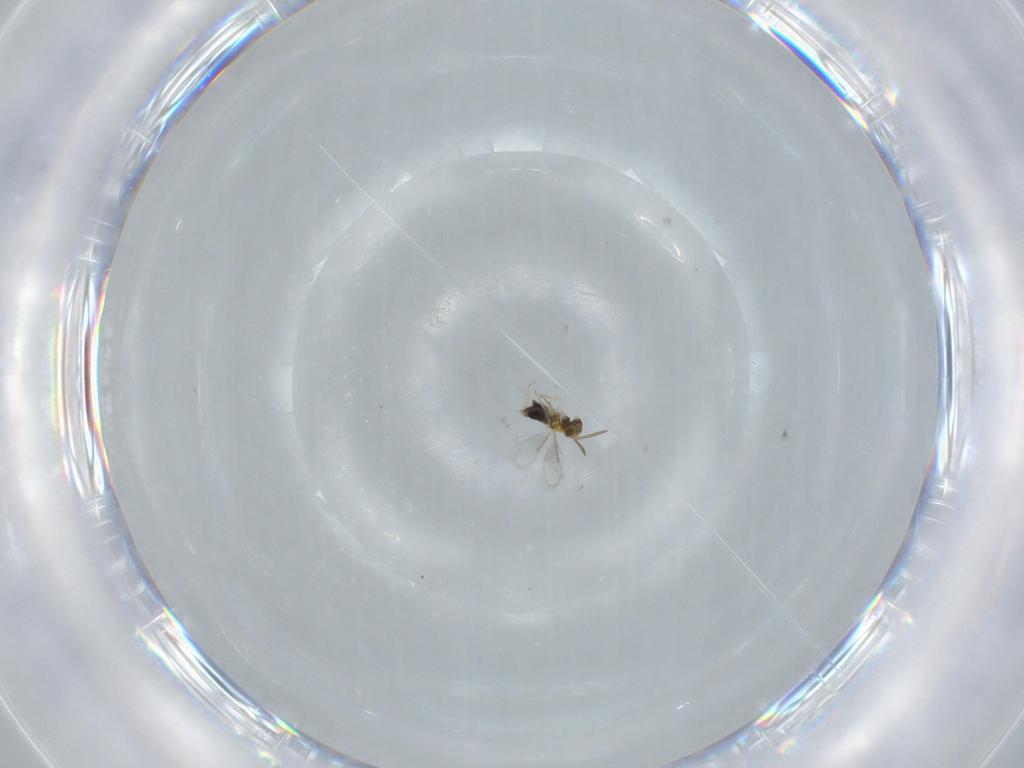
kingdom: Animalia
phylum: Arthropoda
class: Insecta
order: Hymenoptera
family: Aphelinidae
